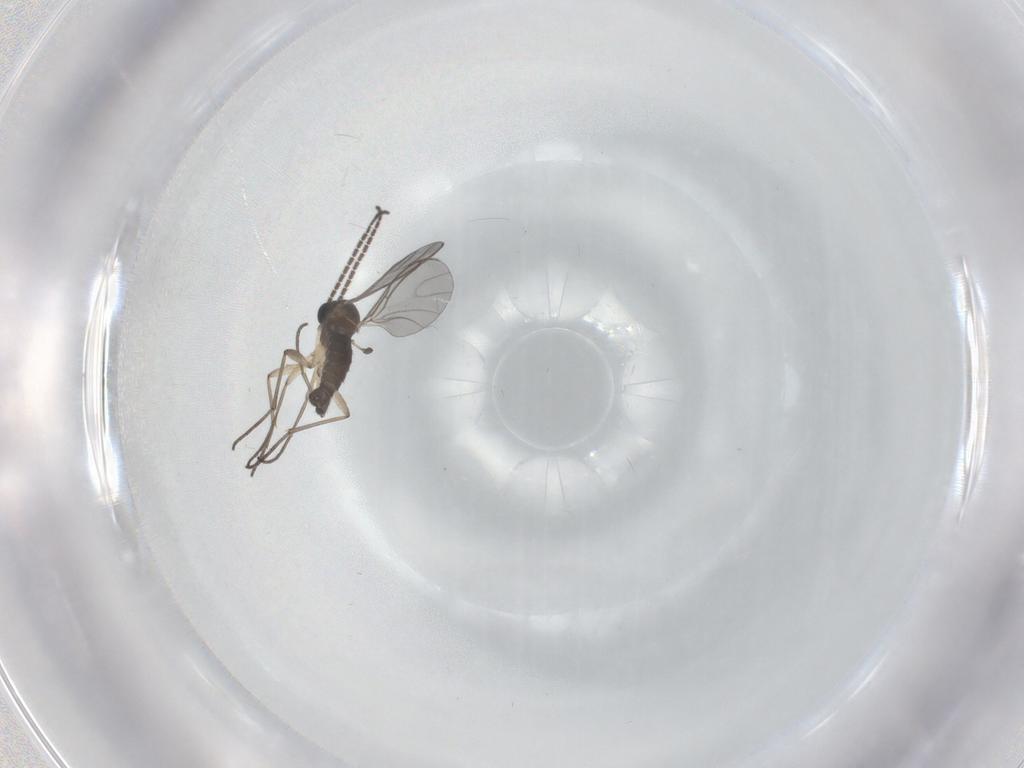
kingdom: Animalia
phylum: Arthropoda
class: Insecta
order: Diptera
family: Sciaridae
